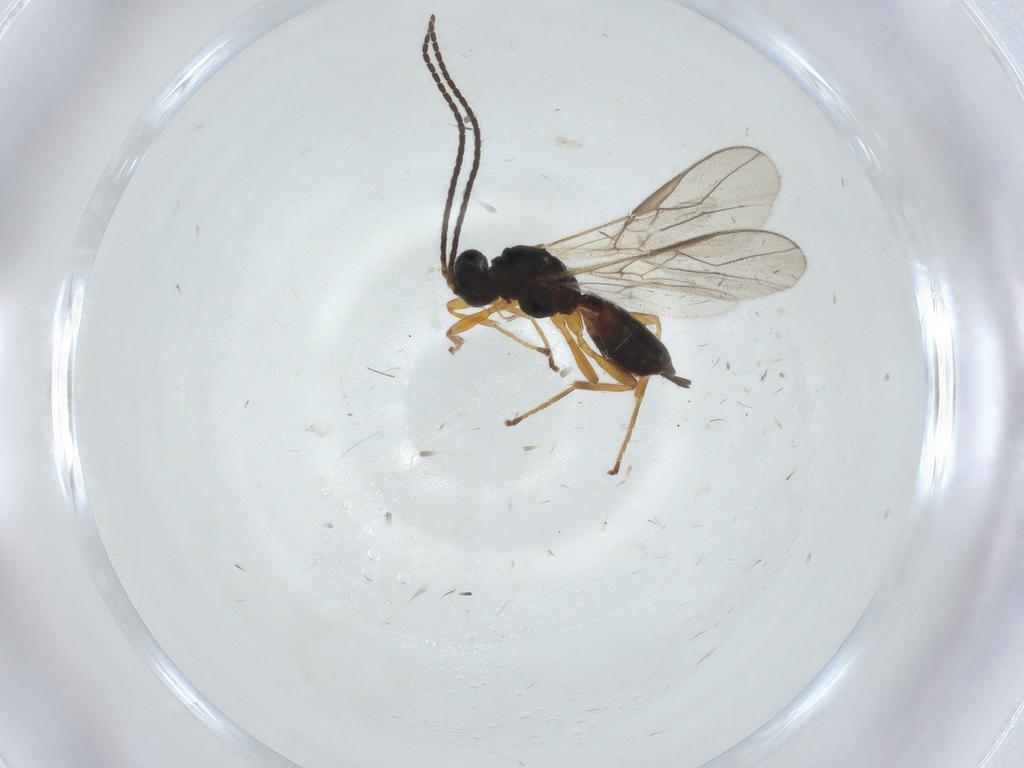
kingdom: Animalia
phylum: Arthropoda
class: Insecta
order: Hymenoptera
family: Braconidae
